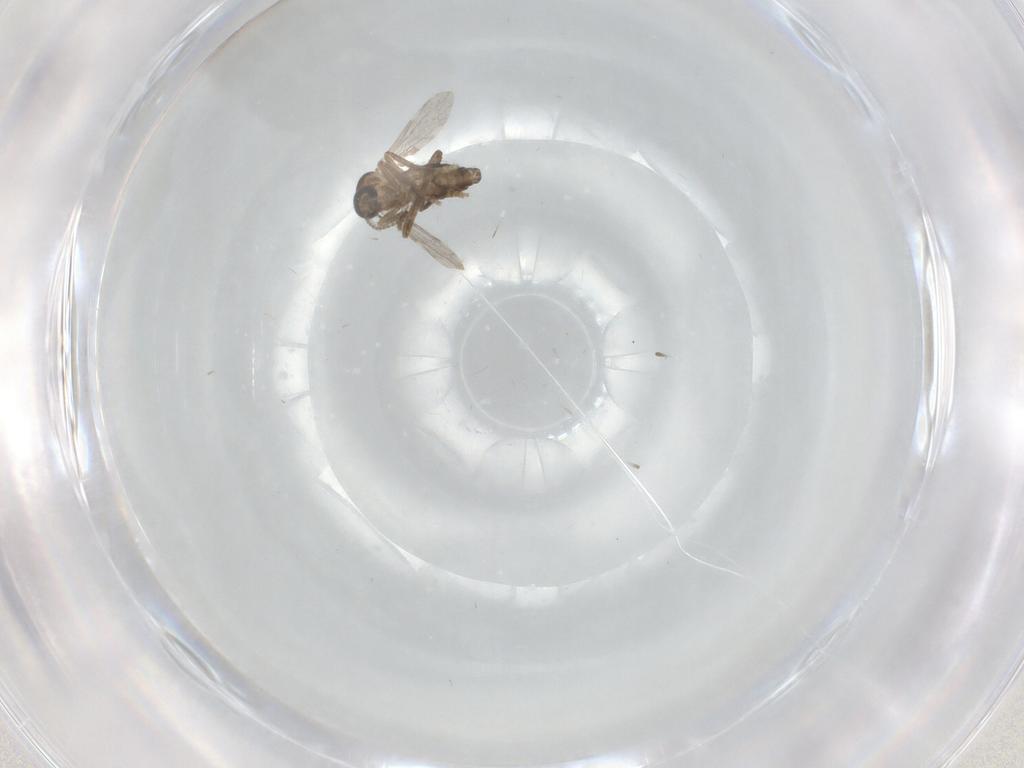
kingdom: Animalia
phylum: Arthropoda
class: Insecta
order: Diptera
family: Ceratopogonidae
